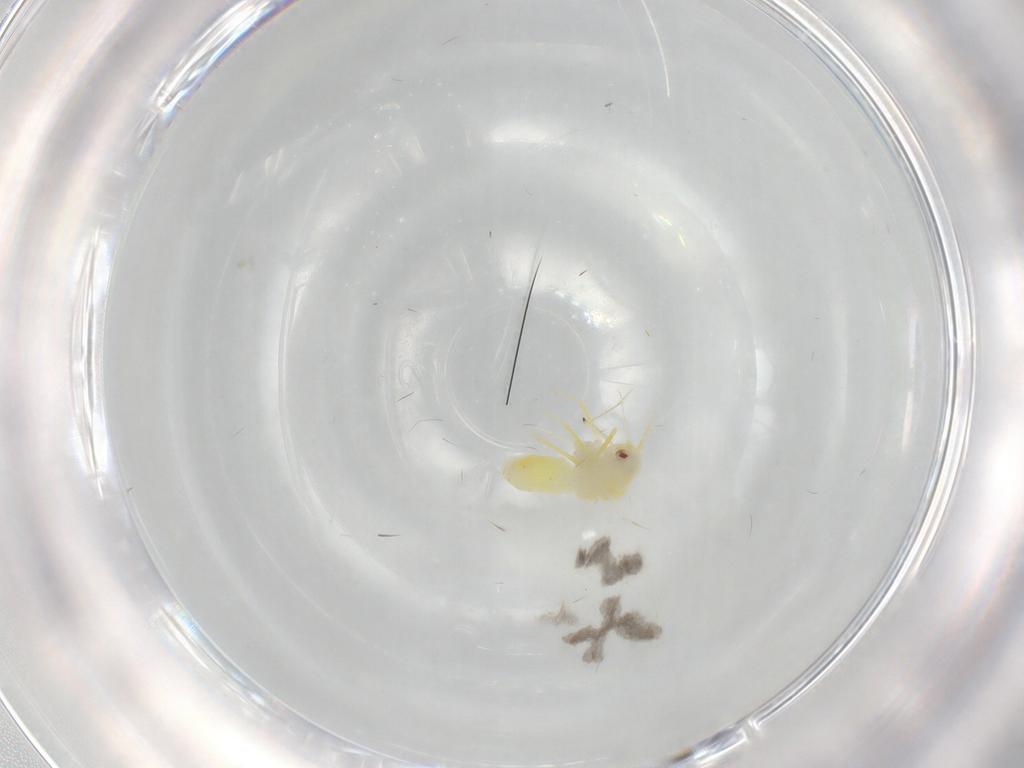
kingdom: Animalia
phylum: Arthropoda
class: Insecta
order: Hemiptera
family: Aleyrodidae
